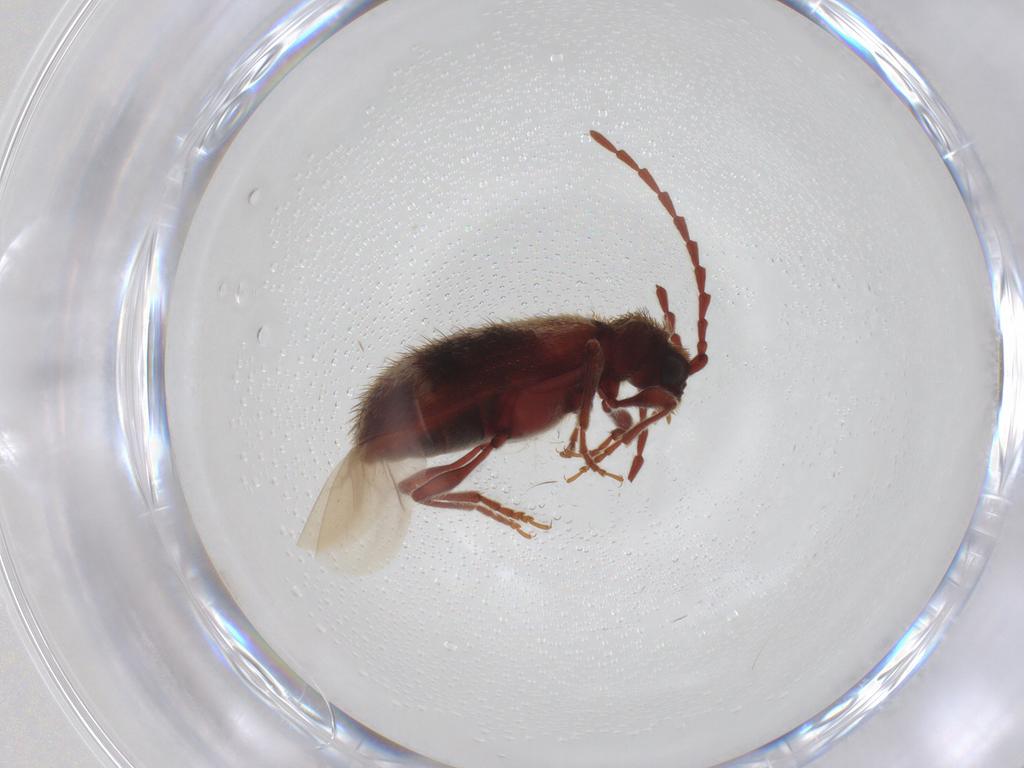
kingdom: Animalia
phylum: Arthropoda
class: Insecta
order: Coleoptera
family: Ptinidae
